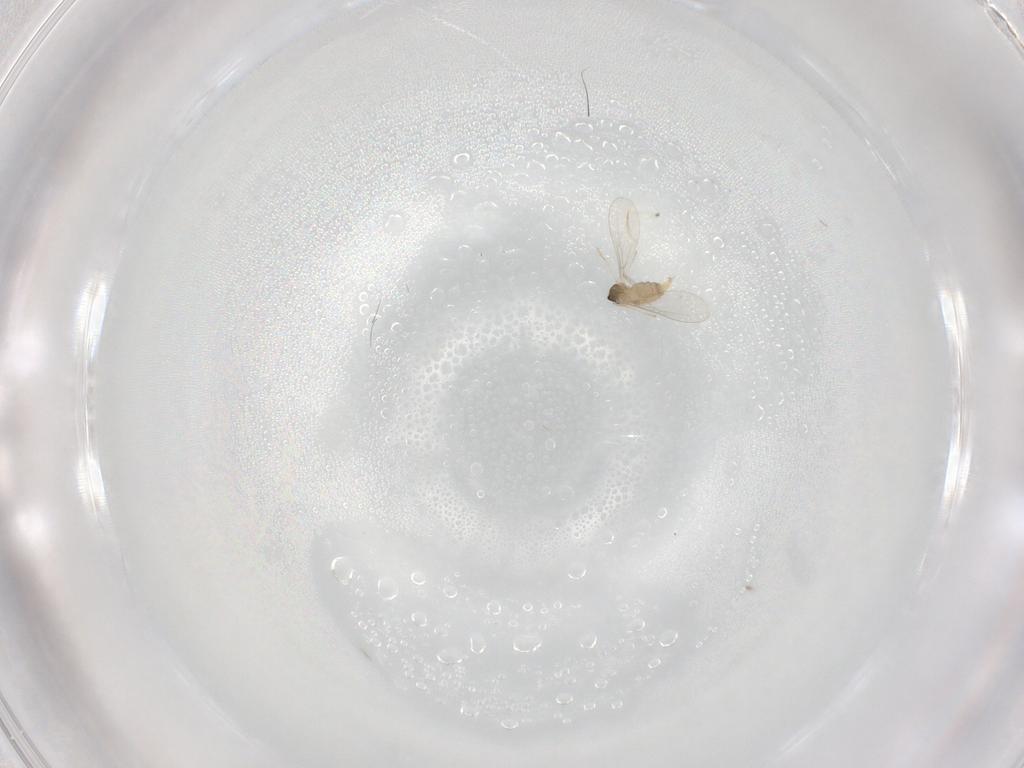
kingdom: Animalia
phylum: Arthropoda
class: Insecta
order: Diptera
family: Cecidomyiidae
